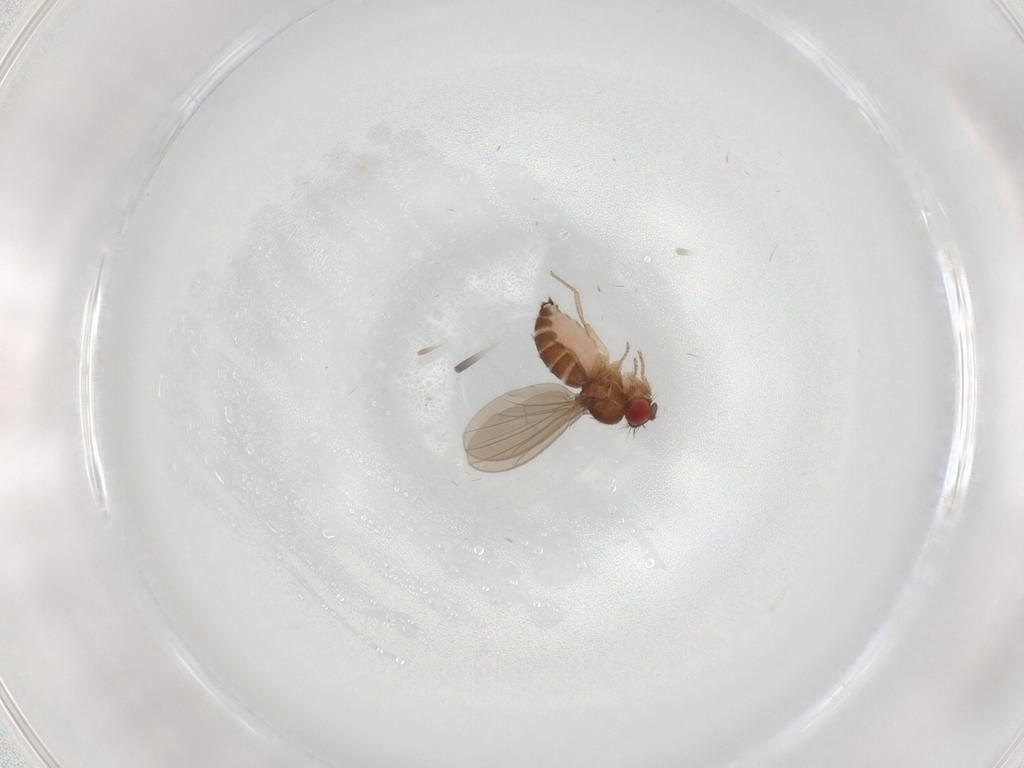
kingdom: Animalia
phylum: Arthropoda
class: Insecta
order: Diptera
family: Drosophilidae
